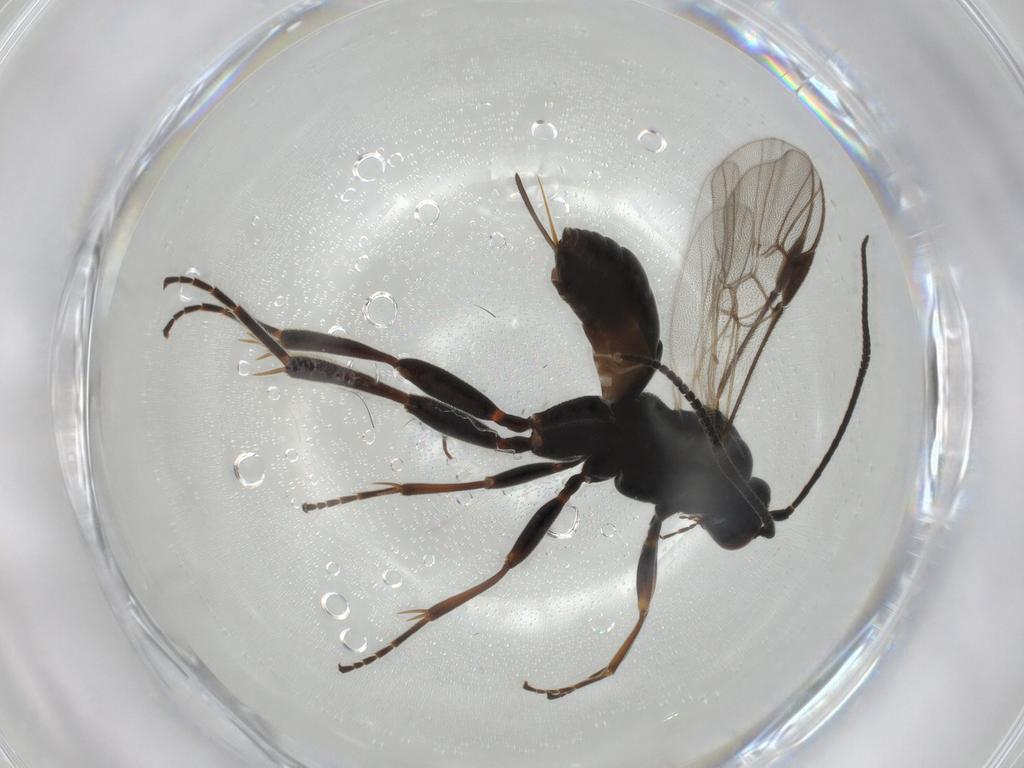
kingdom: Animalia
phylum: Arthropoda
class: Insecta
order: Hymenoptera
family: Braconidae
